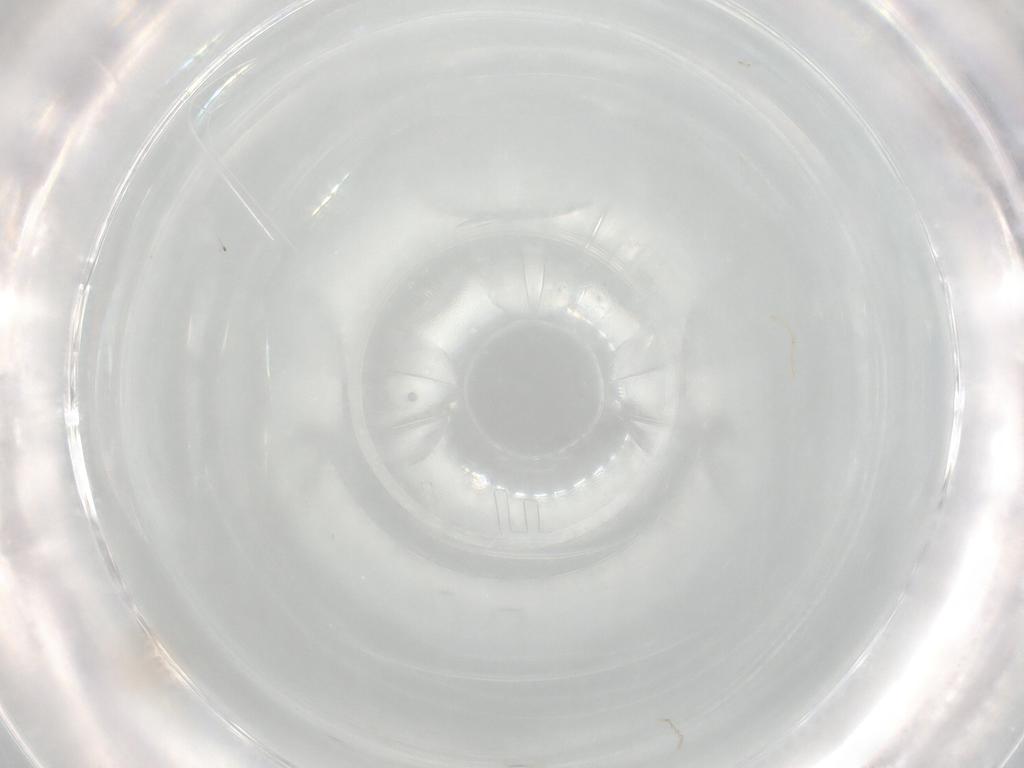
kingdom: Animalia
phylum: Arthropoda
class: Arachnida
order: Trombidiformes
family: Erythraeidae
